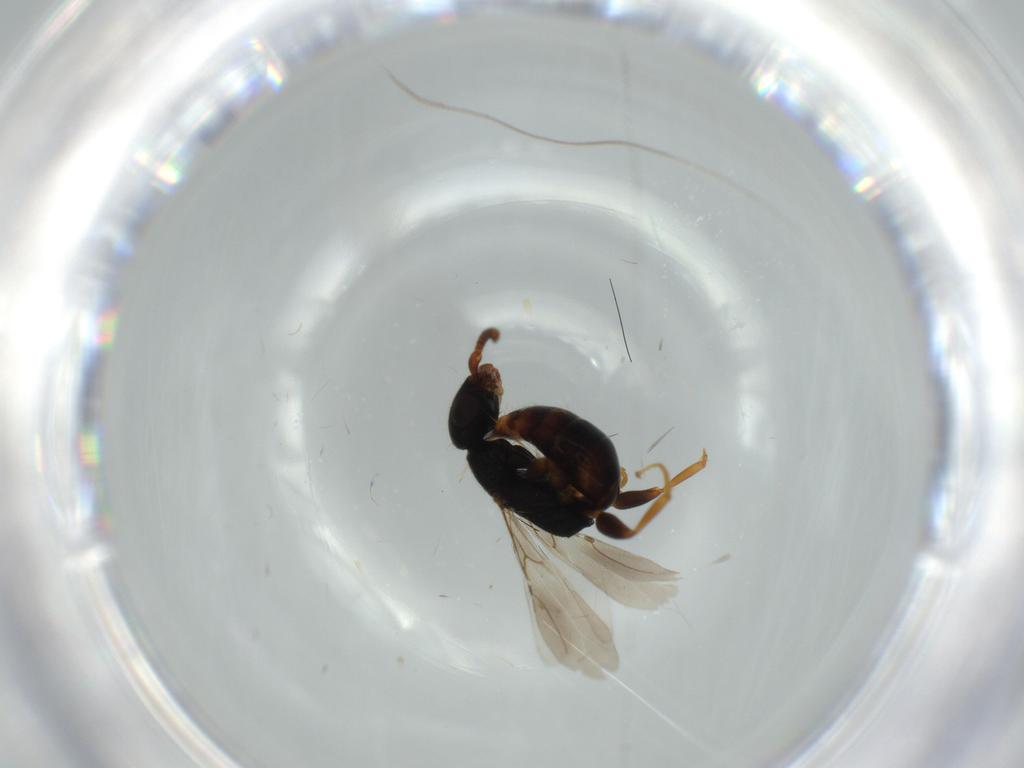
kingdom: Animalia
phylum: Arthropoda
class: Insecta
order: Hymenoptera
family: Bethylidae
